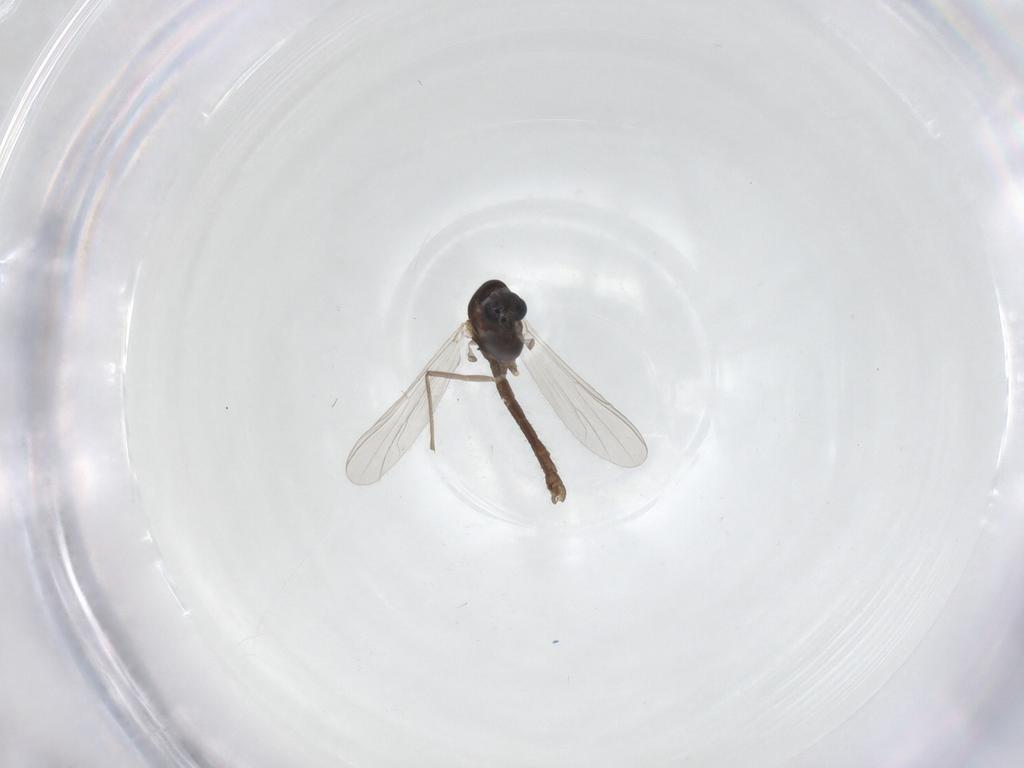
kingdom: Animalia
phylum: Arthropoda
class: Insecta
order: Diptera
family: Chironomidae
